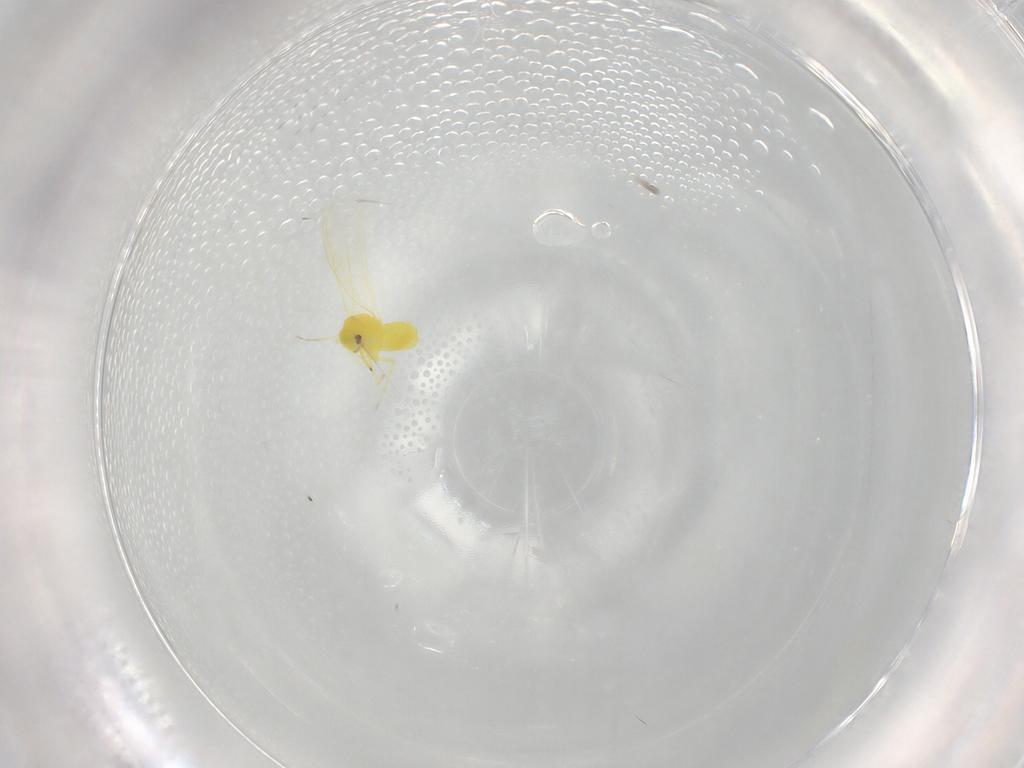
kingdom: Animalia
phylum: Arthropoda
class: Insecta
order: Hemiptera
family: Aleyrodidae
